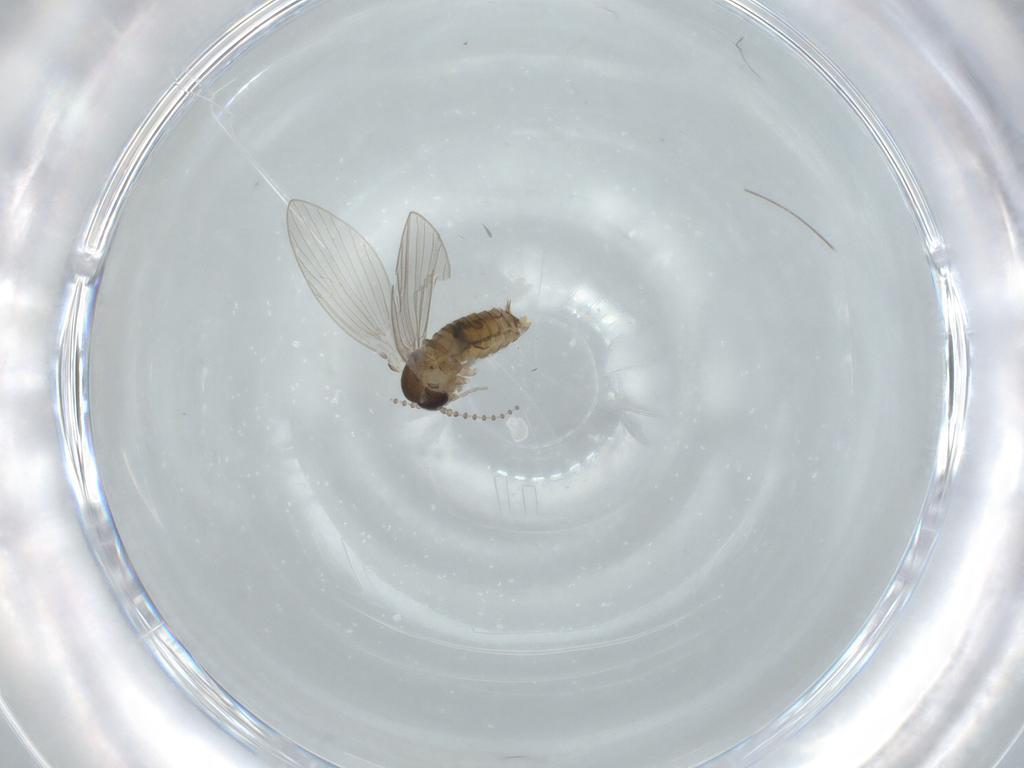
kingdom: Animalia
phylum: Arthropoda
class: Insecta
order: Diptera
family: Psychodidae
